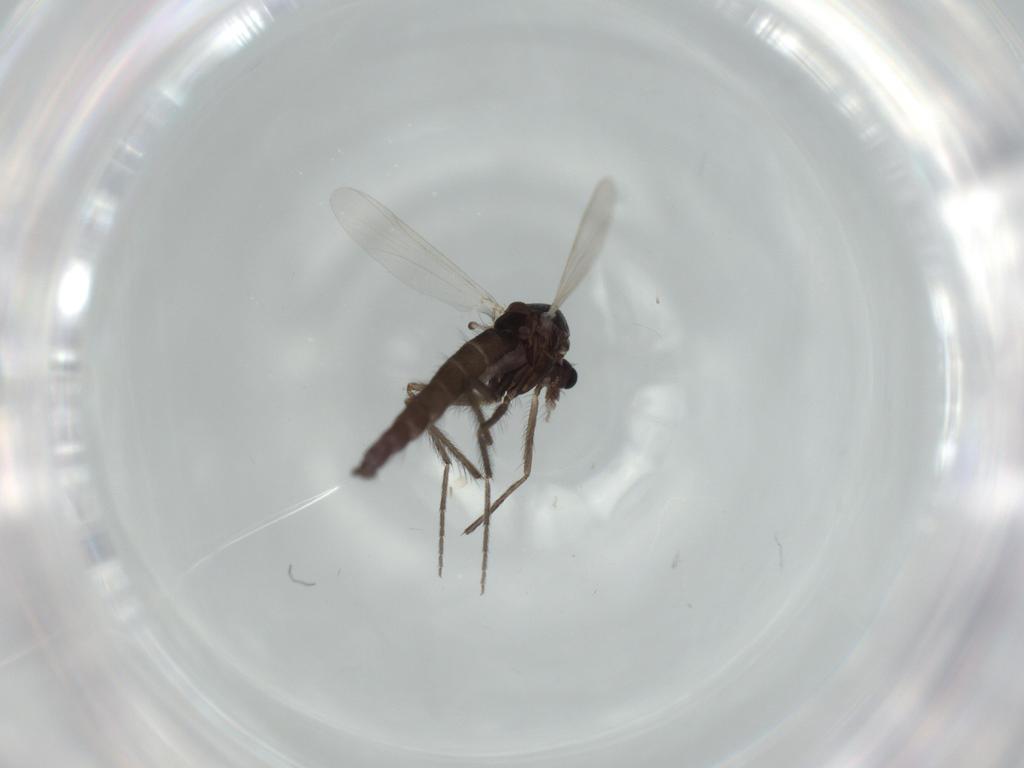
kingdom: Animalia
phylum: Arthropoda
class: Insecta
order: Diptera
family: Chironomidae
